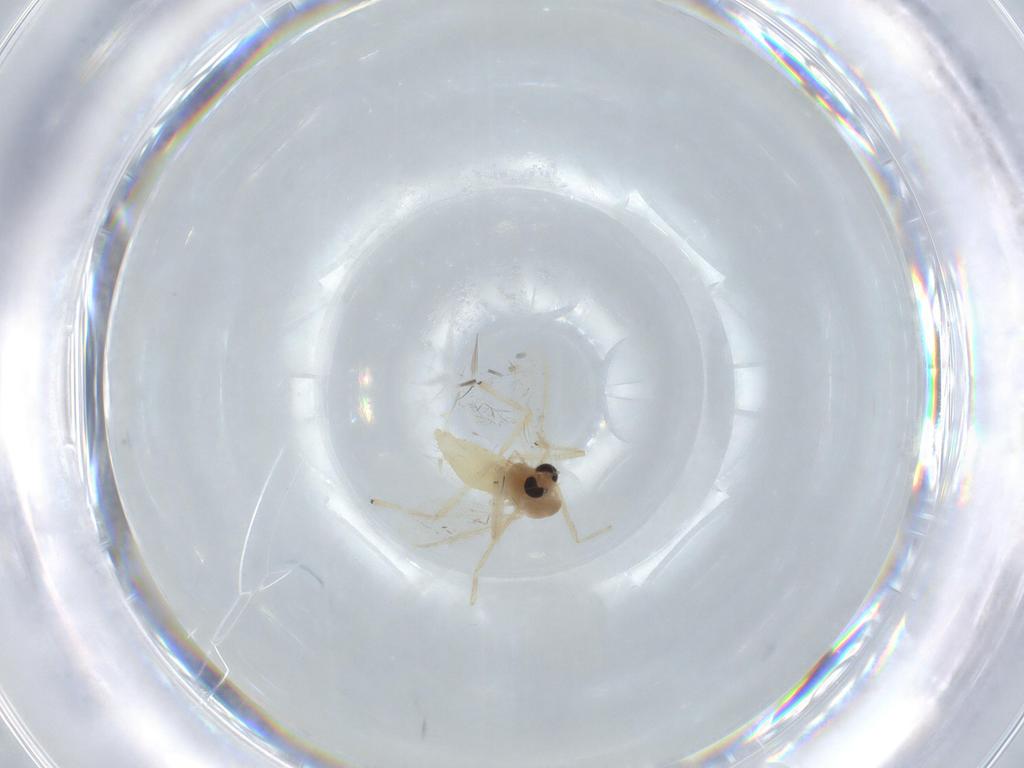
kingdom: Animalia
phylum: Arthropoda
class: Insecta
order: Diptera
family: Chironomidae
